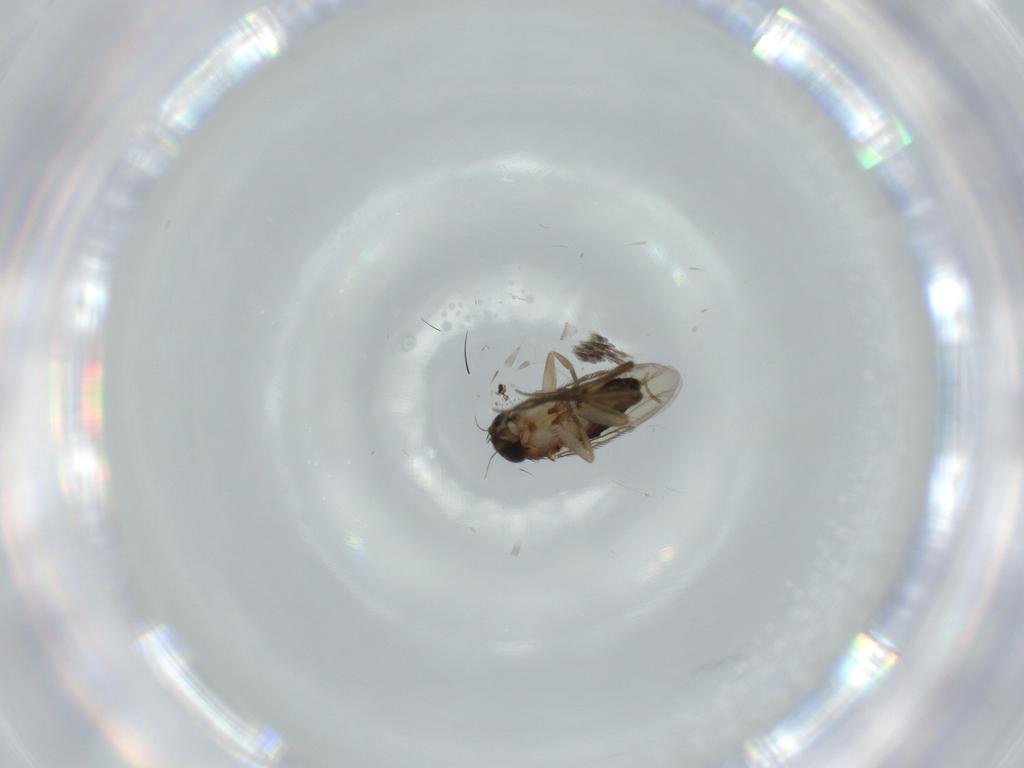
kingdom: Animalia
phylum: Arthropoda
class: Insecta
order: Diptera
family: Phoridae
